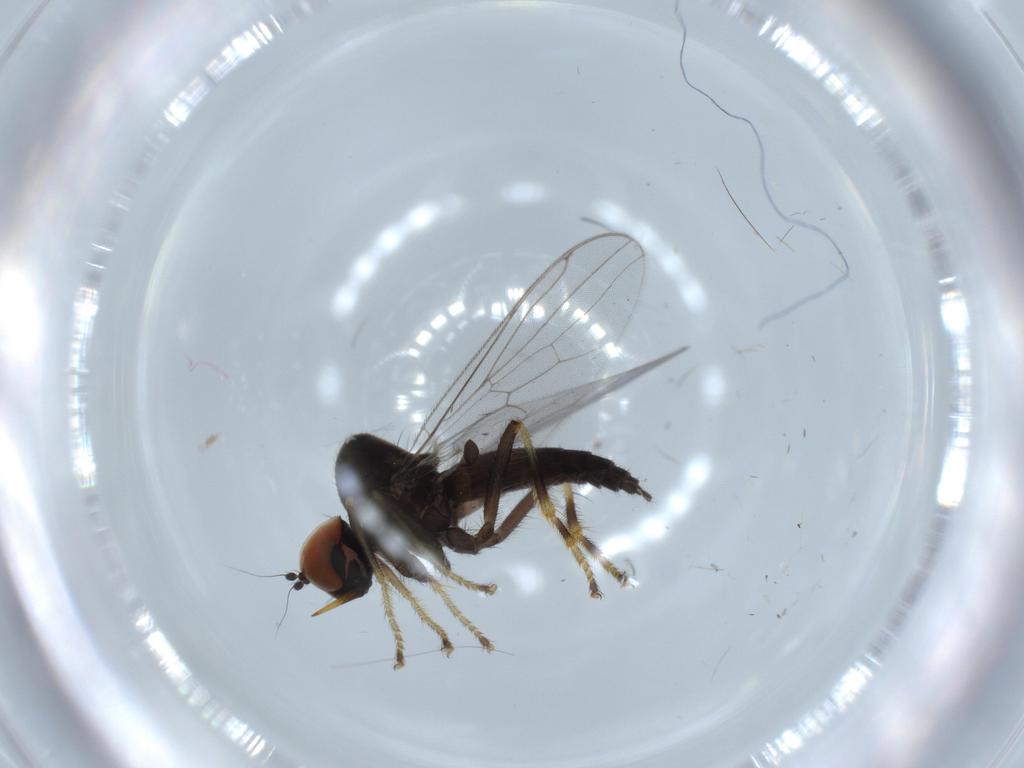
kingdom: Animalia
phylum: Arthropoda
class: Insecta
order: Diptera
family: Hybotidae
